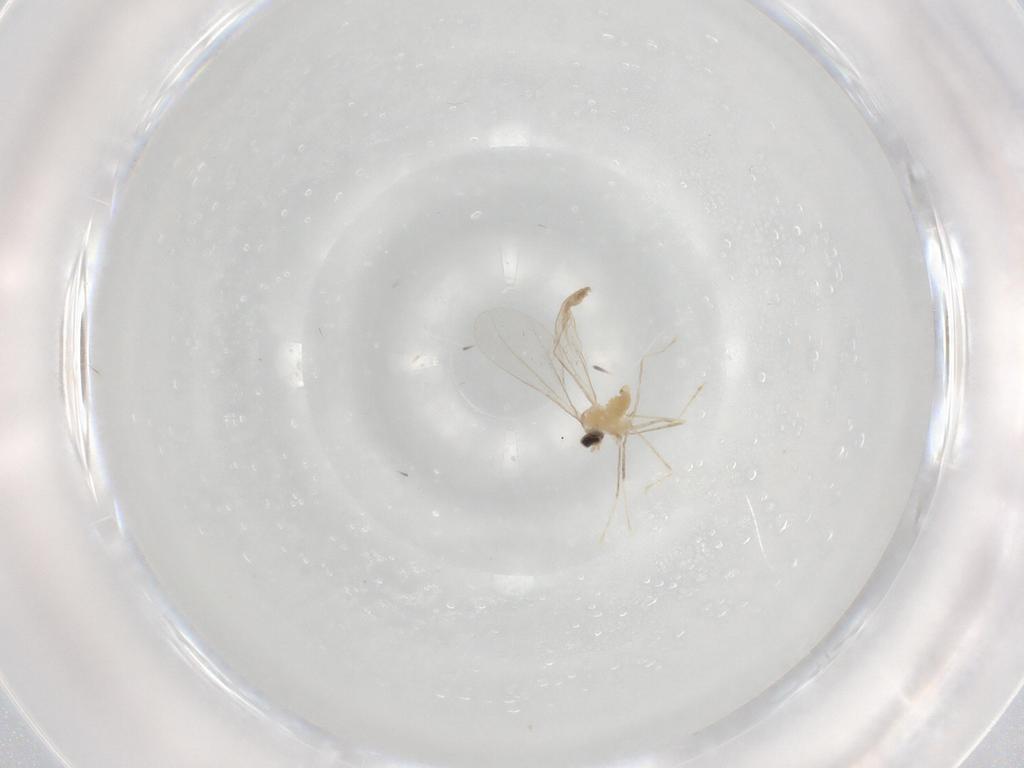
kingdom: Animalia
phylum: Arthropoda
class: Insecta
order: Diptera
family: Cecidomyiidae
